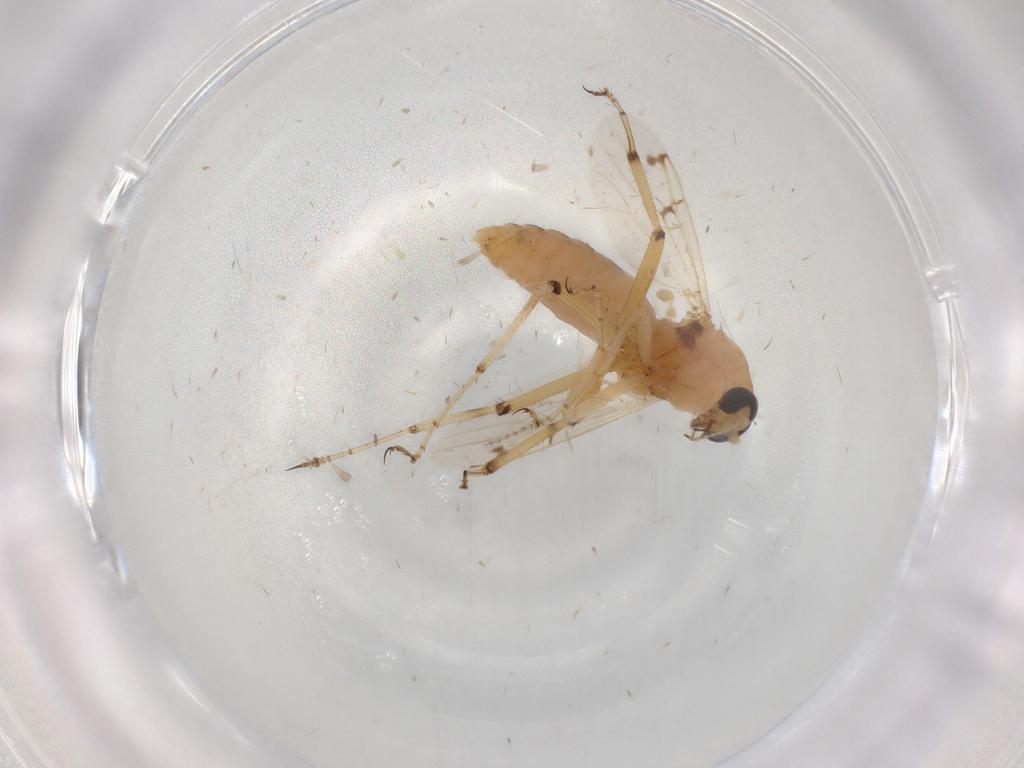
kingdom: Animalia
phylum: Arthropoda
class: Insecta
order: Diptera
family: Ceratopogonidae
